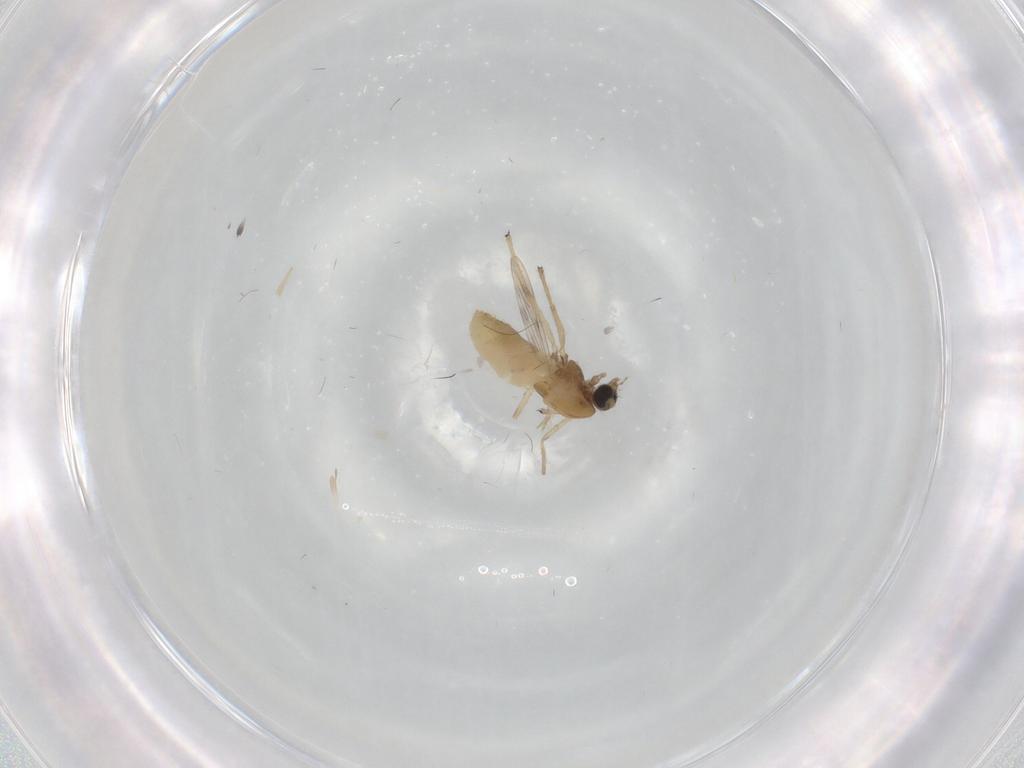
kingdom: Animalia
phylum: Arthropoda
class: Insecta
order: Diptera
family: Chironomidae
